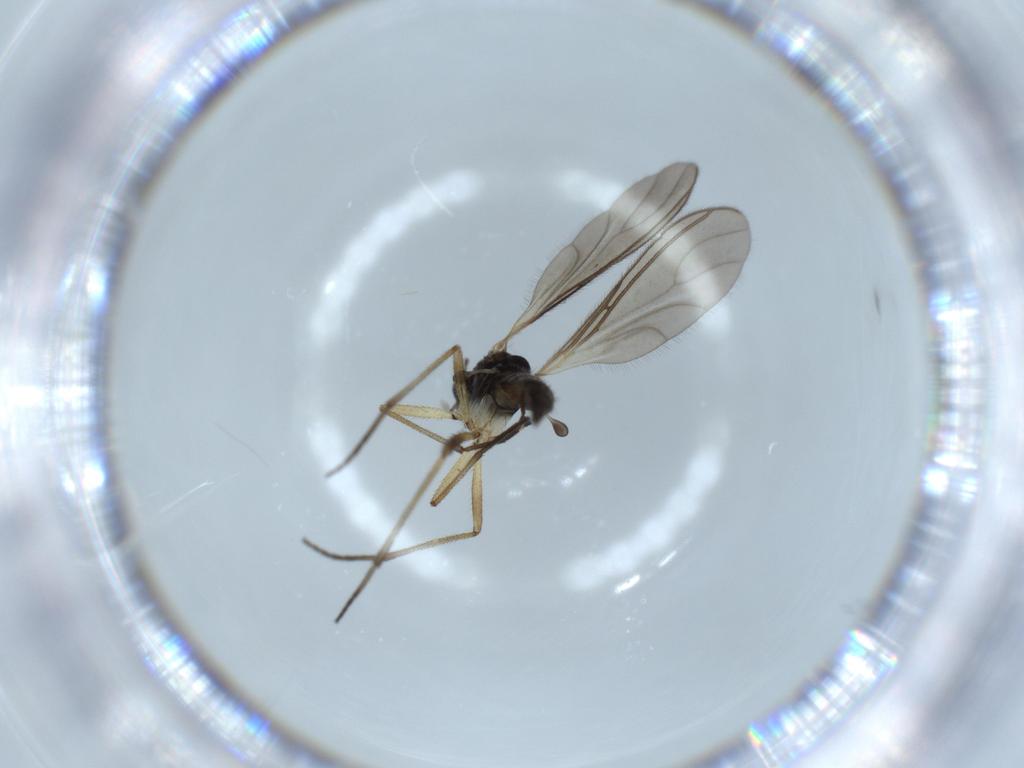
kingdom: Animalia
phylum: Arthropoda
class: Insecta
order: Diptera
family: Sciaridae
